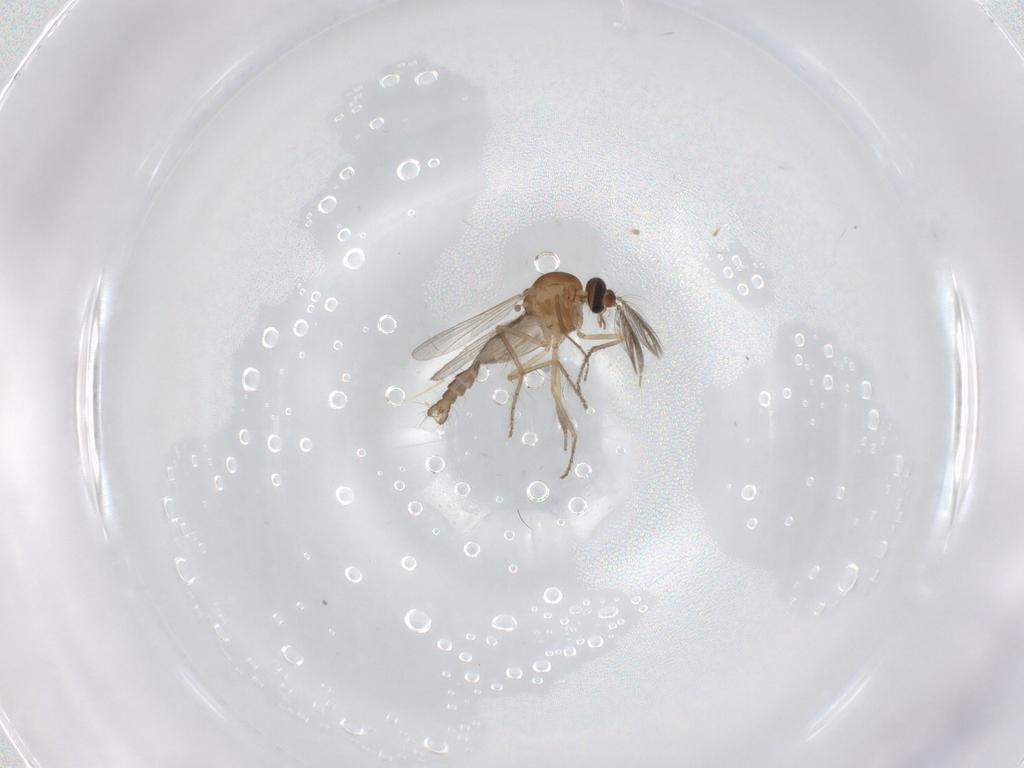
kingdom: Animalia
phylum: Arthropoda
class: Insecta
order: Diptera
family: Ceratopogonidae
